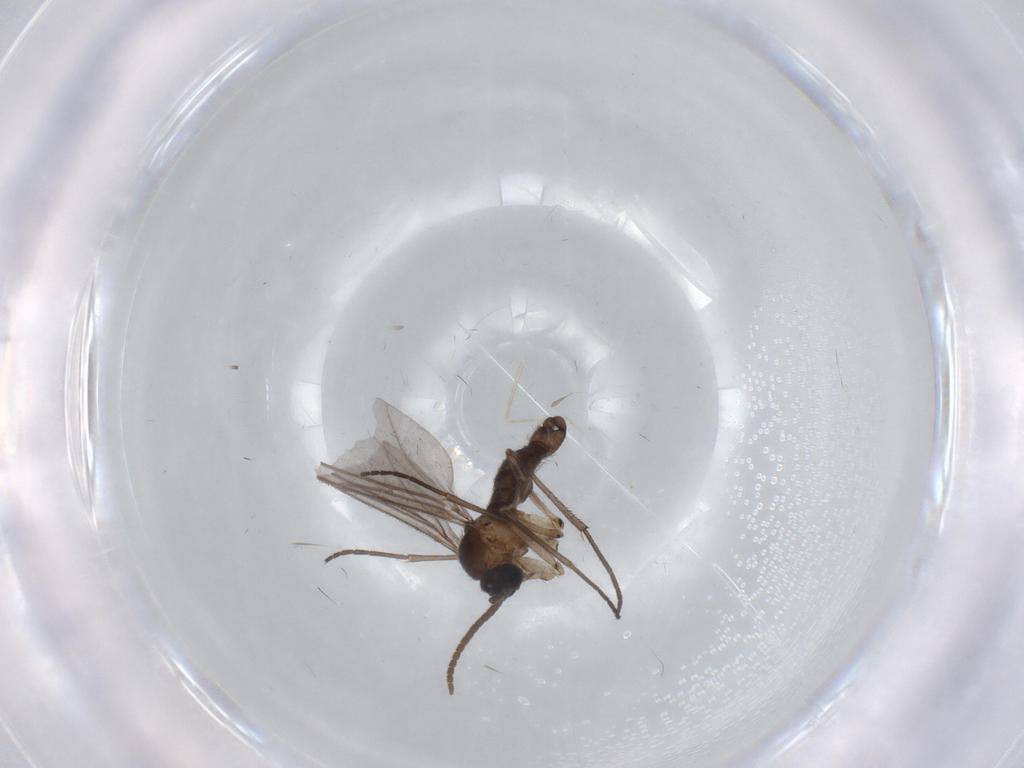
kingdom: Animalia
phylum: Arthropoda
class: Insecta
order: Diptera
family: Cecidomyiidae
